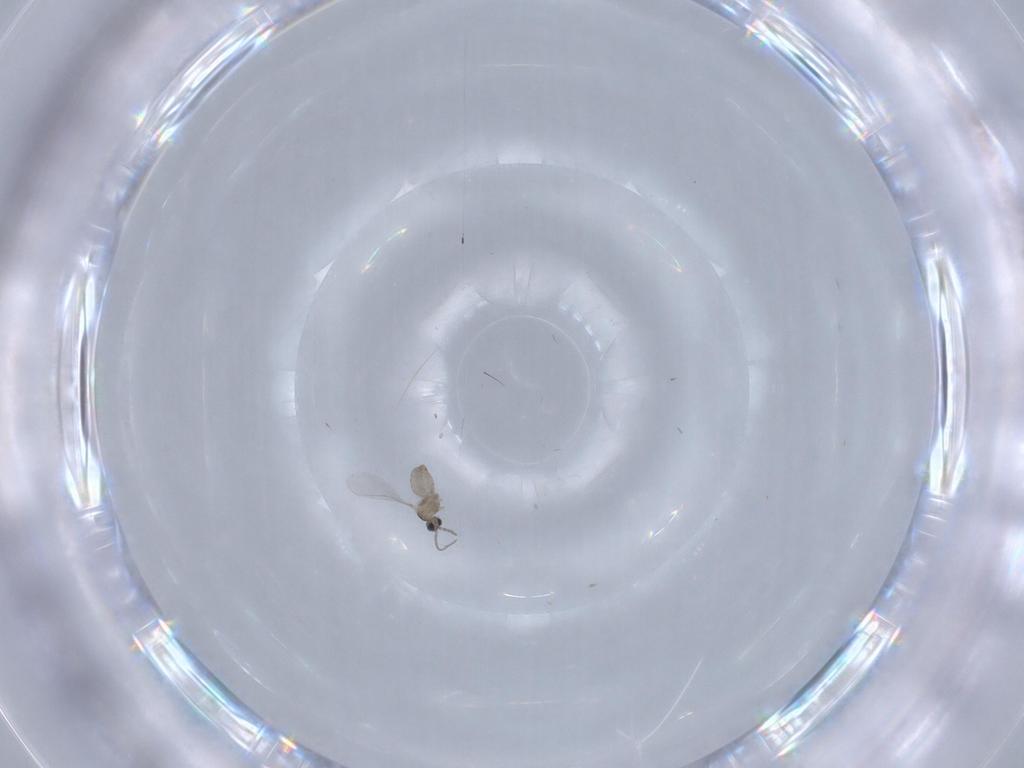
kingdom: Animalia
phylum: Arthropoda
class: Insecta
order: Diptera
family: Cecidomyiidae
